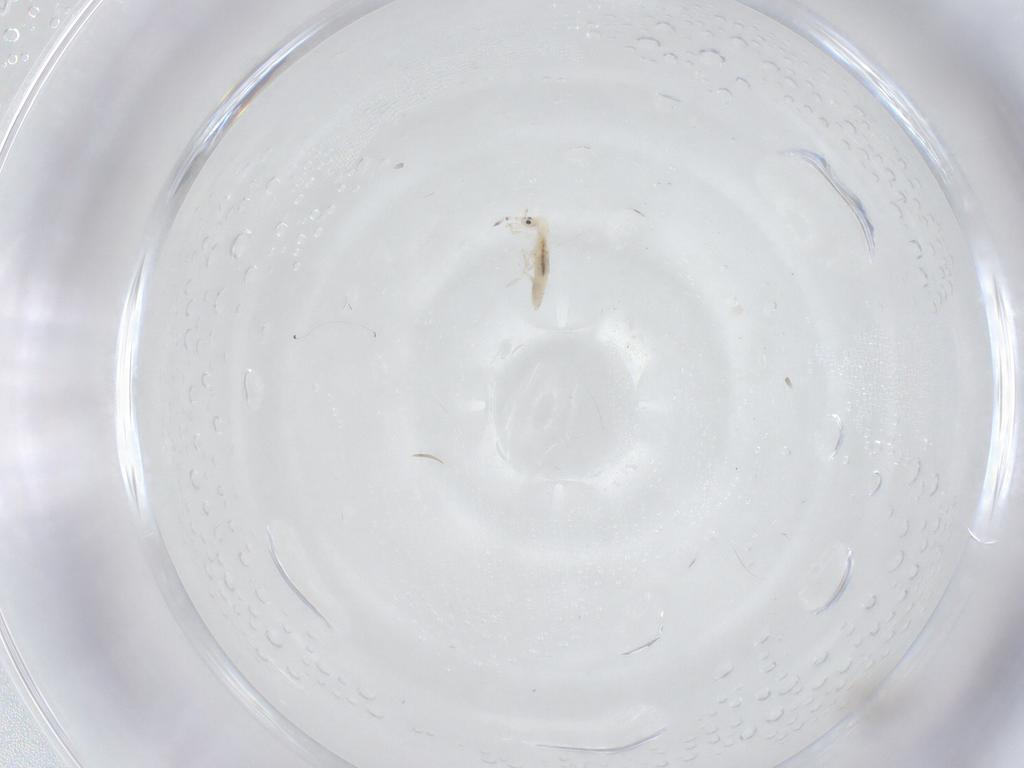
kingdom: Animalia
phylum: Arthropoda
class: Collembola
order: Entomobryomorpha
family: Entomobryidae
